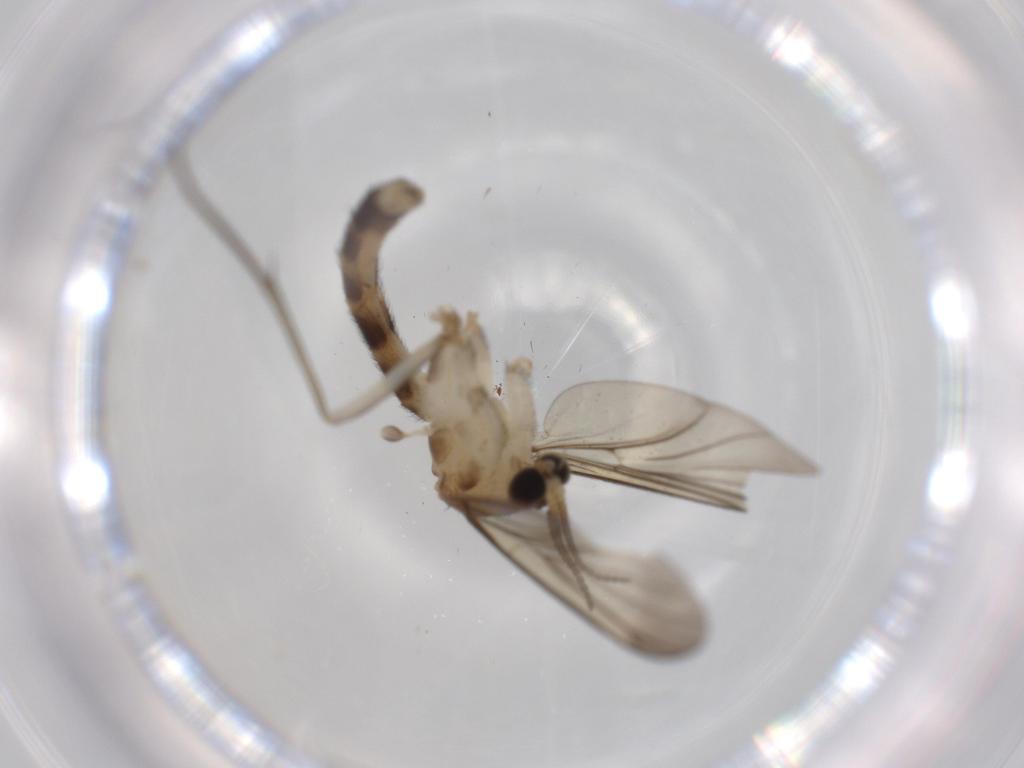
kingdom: Animalia
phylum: Arthropoda
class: Insecta
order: Diptera
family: Cecidomyiidae
